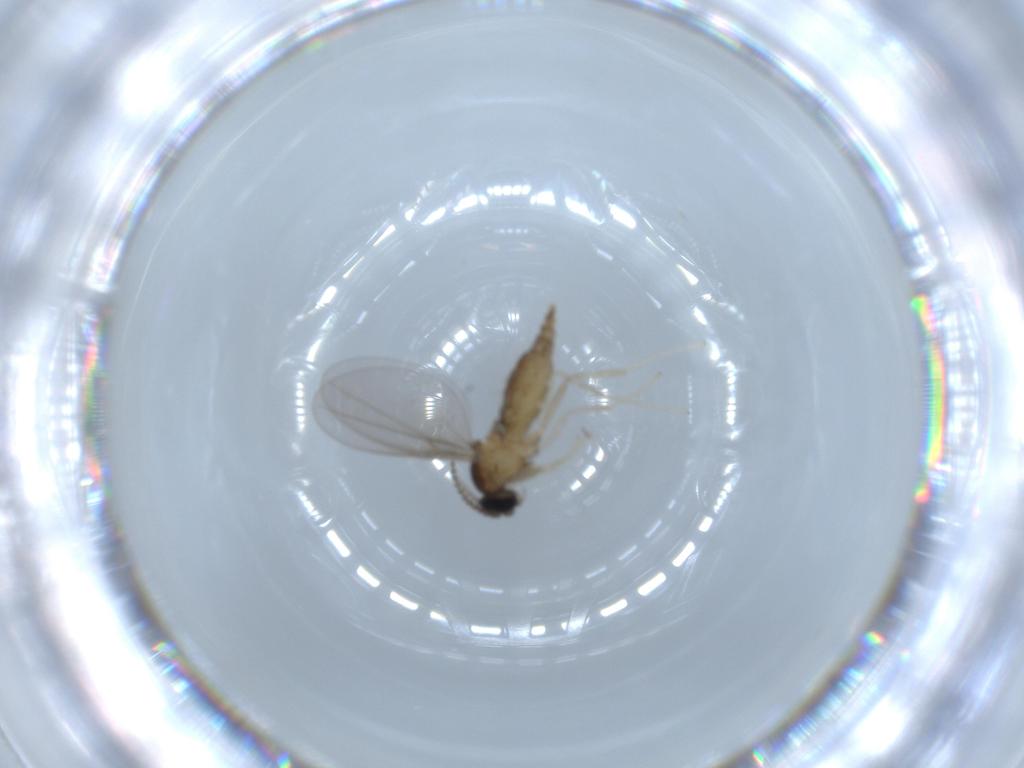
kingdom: Animalia
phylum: Arthropoda
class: Insecta
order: Diptera
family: Cecidomyiidae
